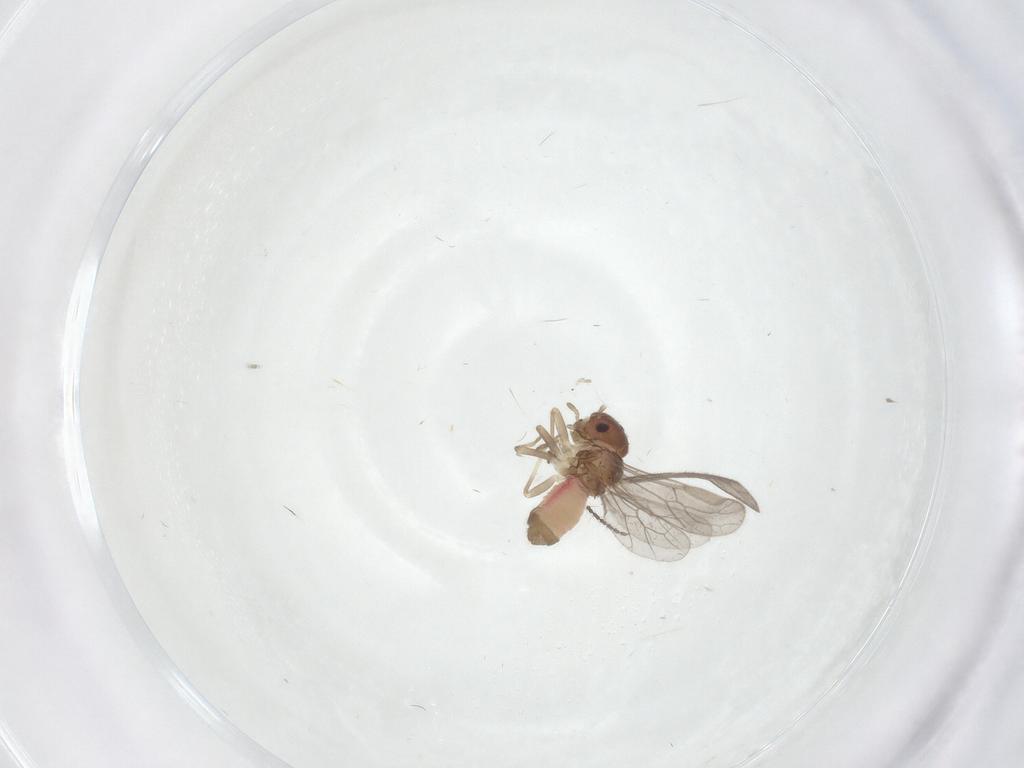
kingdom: Animalia
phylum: Arthropoda
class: Insecta
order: Psocodea
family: Asiopsocidae
